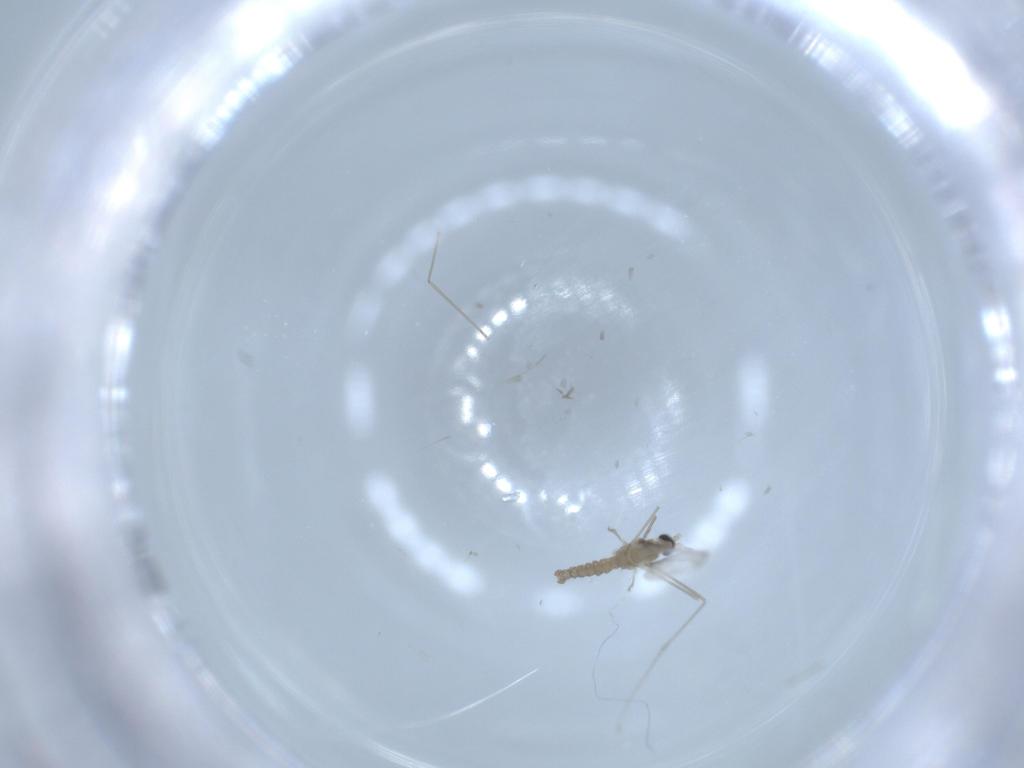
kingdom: Animalia
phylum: Arthropoda
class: Insecta
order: Diptera
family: Cecidomyiidae
